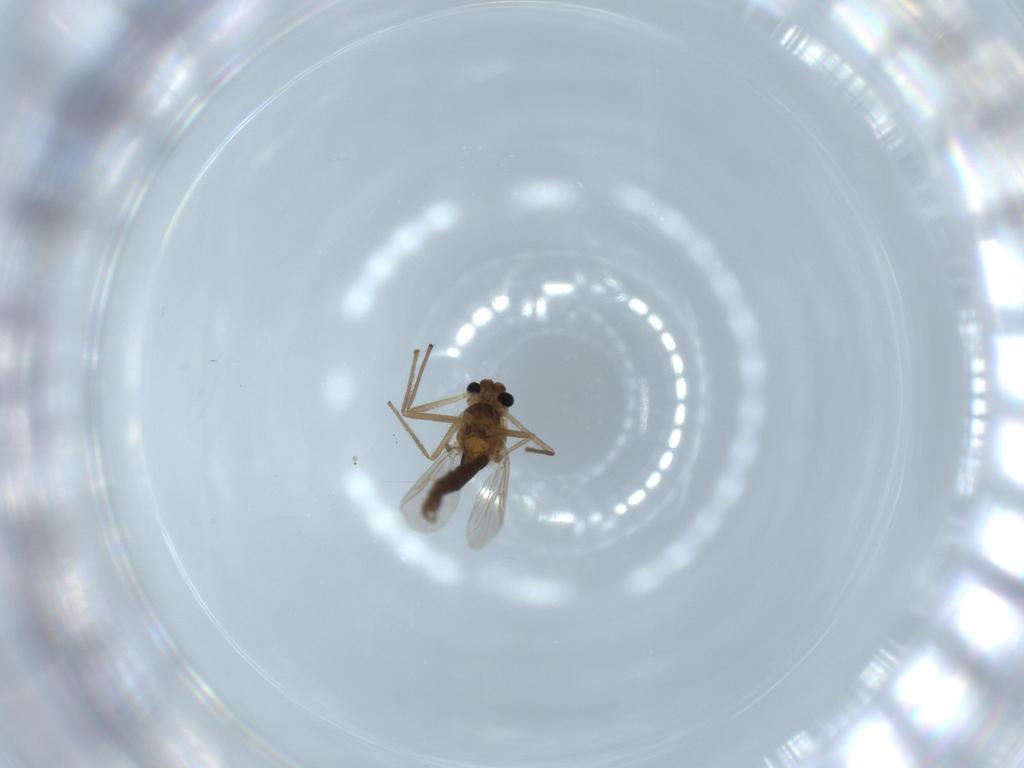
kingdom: Animalia
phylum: Arthropoda
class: Insecta
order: Diptera
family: Chironomidae
